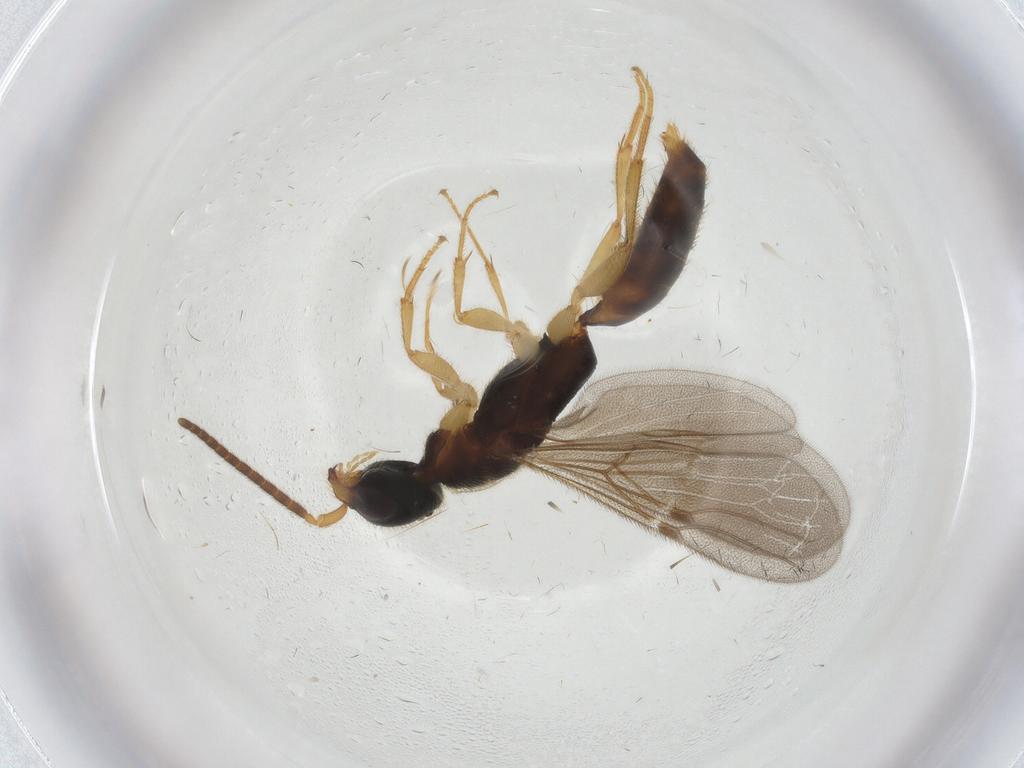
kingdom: Animalia
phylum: Arthropoda
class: Insecta
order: Hymenoptera
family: Bethylidae
